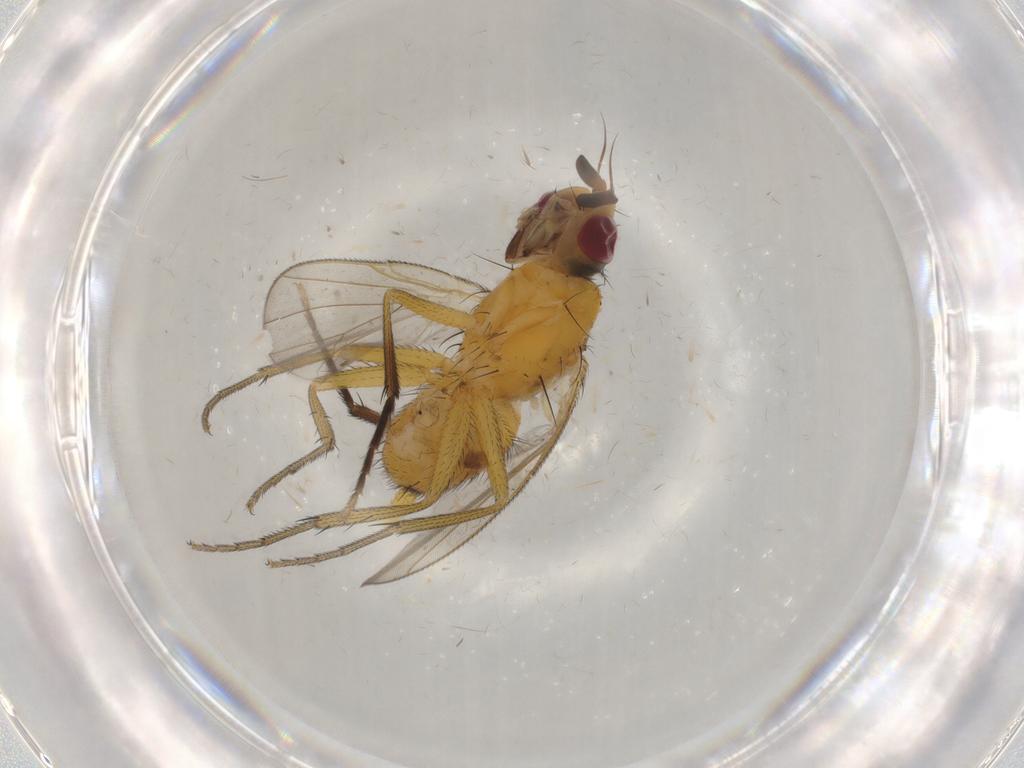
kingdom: Animalia
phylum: Arthropoda
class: Insecta
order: Diptera
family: Muscidae
